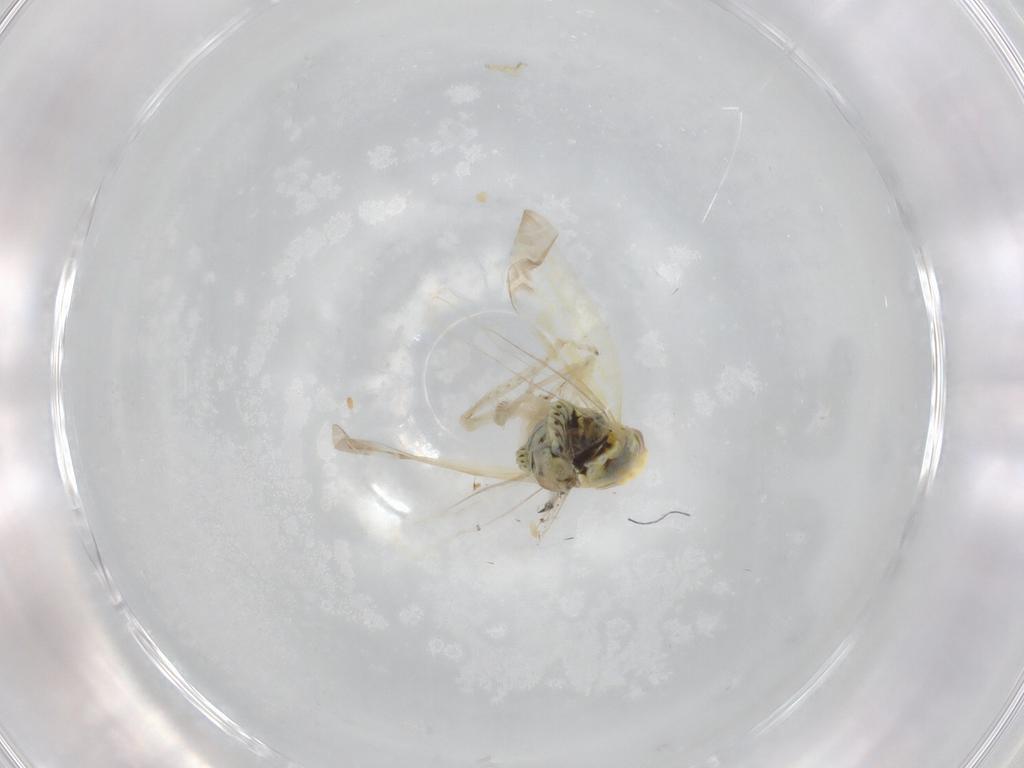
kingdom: Animalia
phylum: Arthropoda
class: Insecta
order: Hemiptera
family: Cicadellidae
